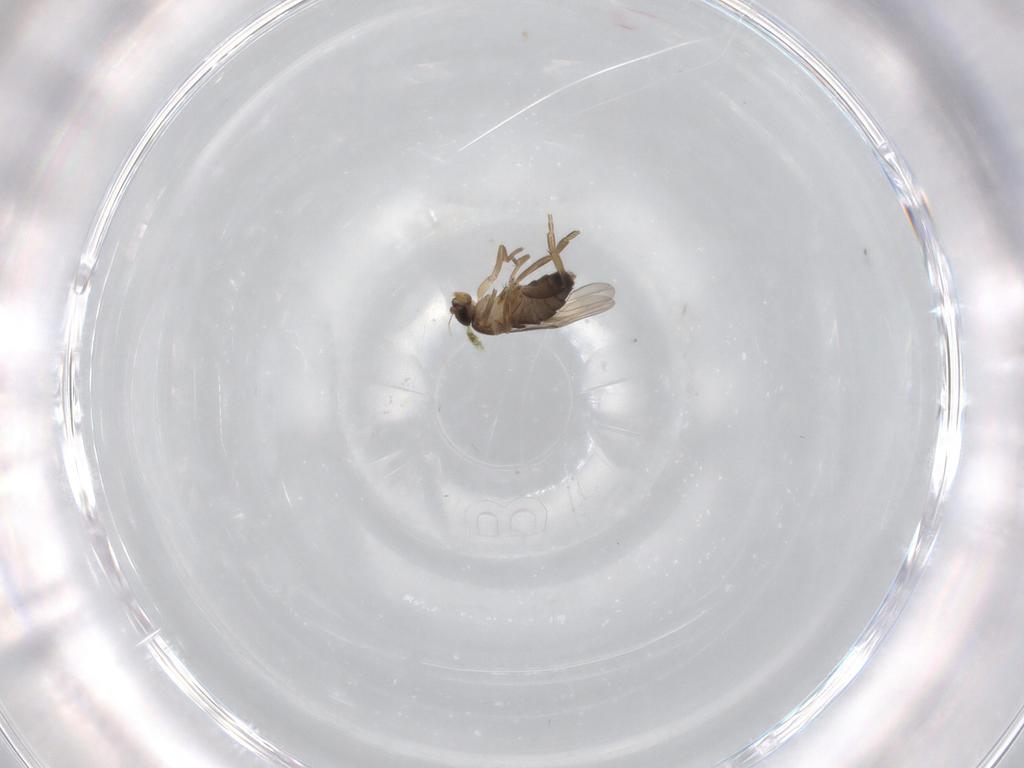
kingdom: Animalia
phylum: Arthropoda
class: Insecta
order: Diptera
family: Phoridae
